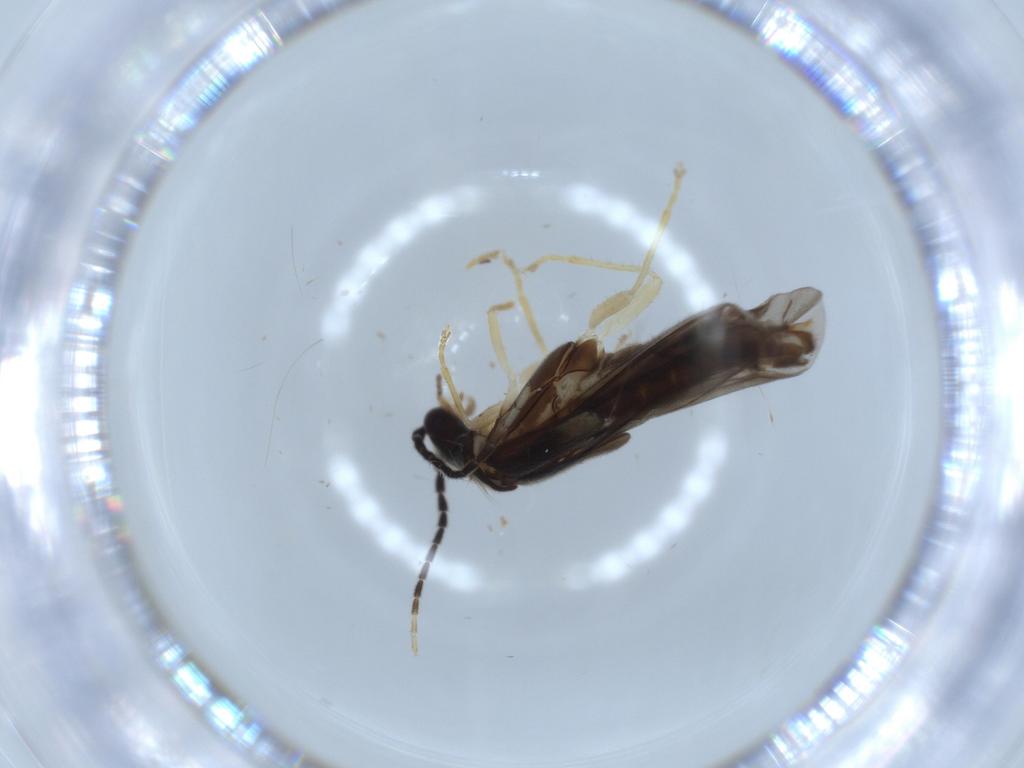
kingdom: Animalia
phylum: Arthropoda
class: Insecta
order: Coleoptera
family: Cantharidae
